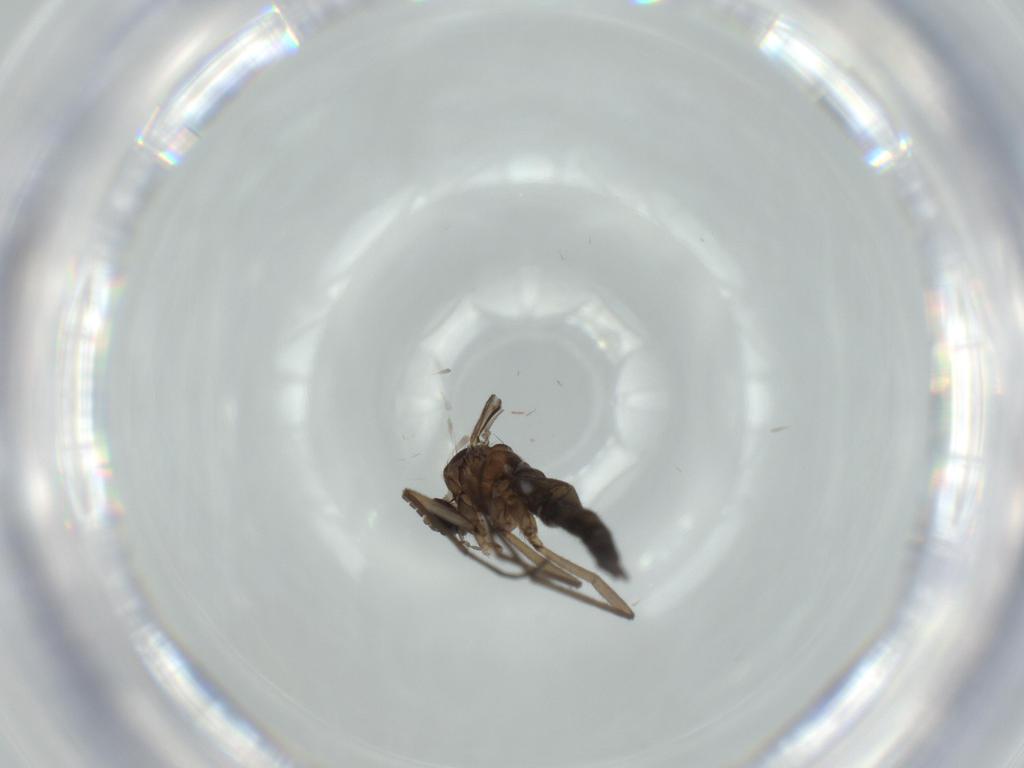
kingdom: Animalia
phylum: Arthropoda
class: Insecta
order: Diptera
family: Sciaridae
